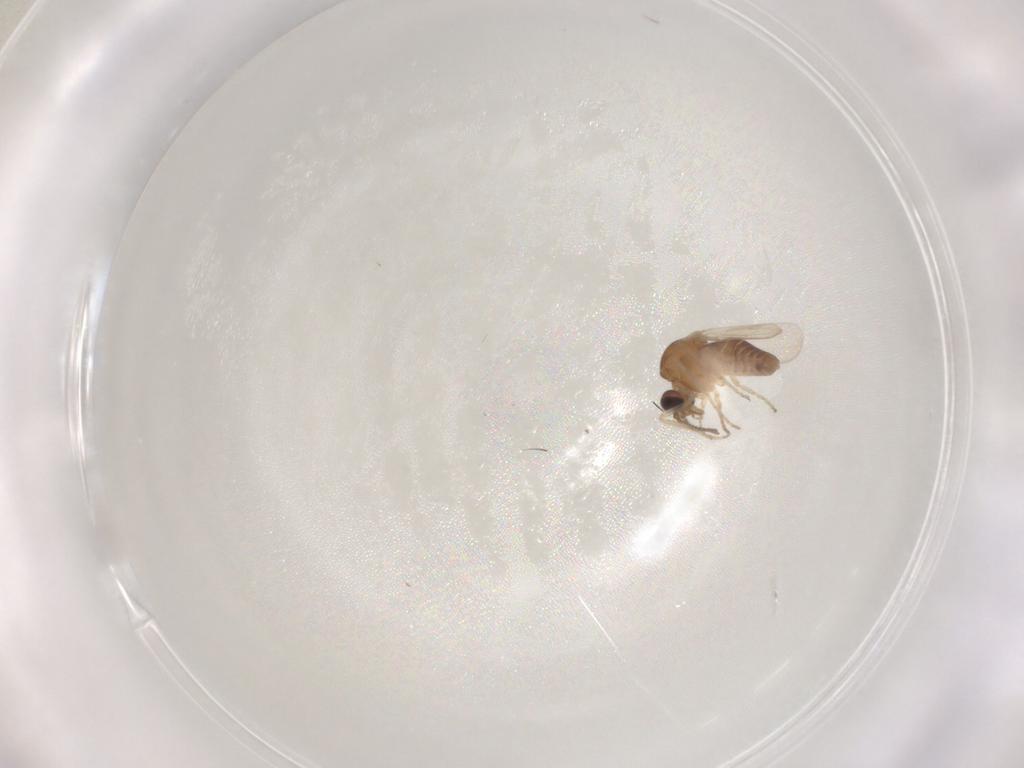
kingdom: Animalia
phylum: Arthropoda
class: Insecta
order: Diptera
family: Ceratopogonidae
